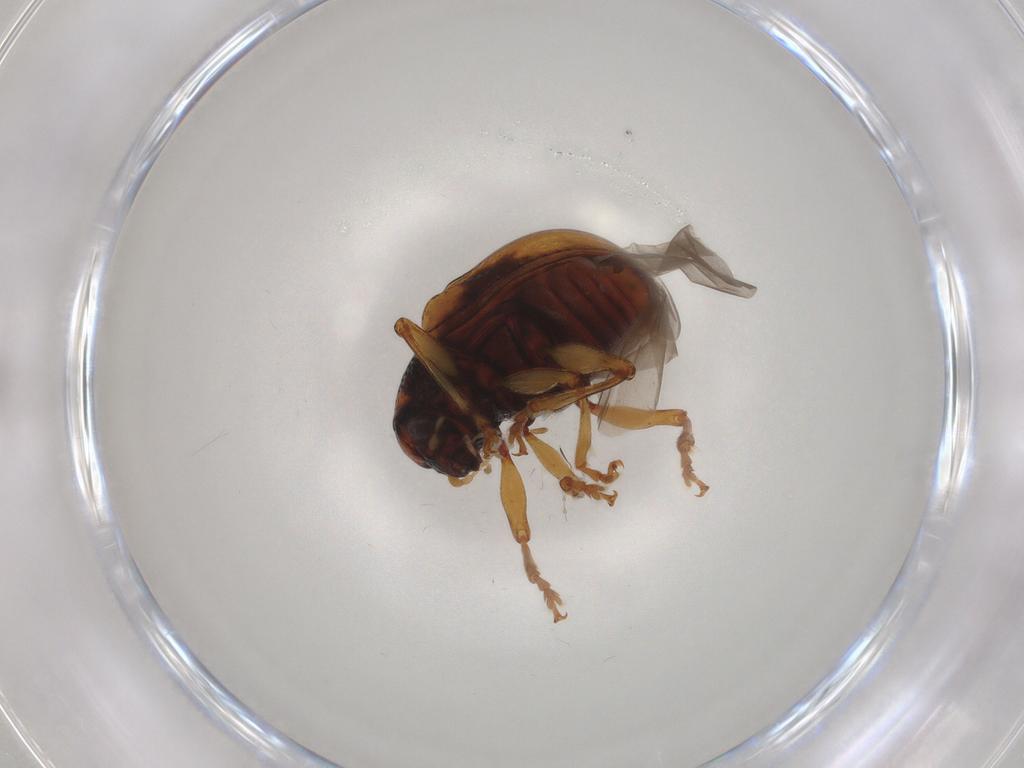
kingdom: Animalia
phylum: Arthropoda
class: Insecta
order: Coleoptera
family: Chrysomelidae
